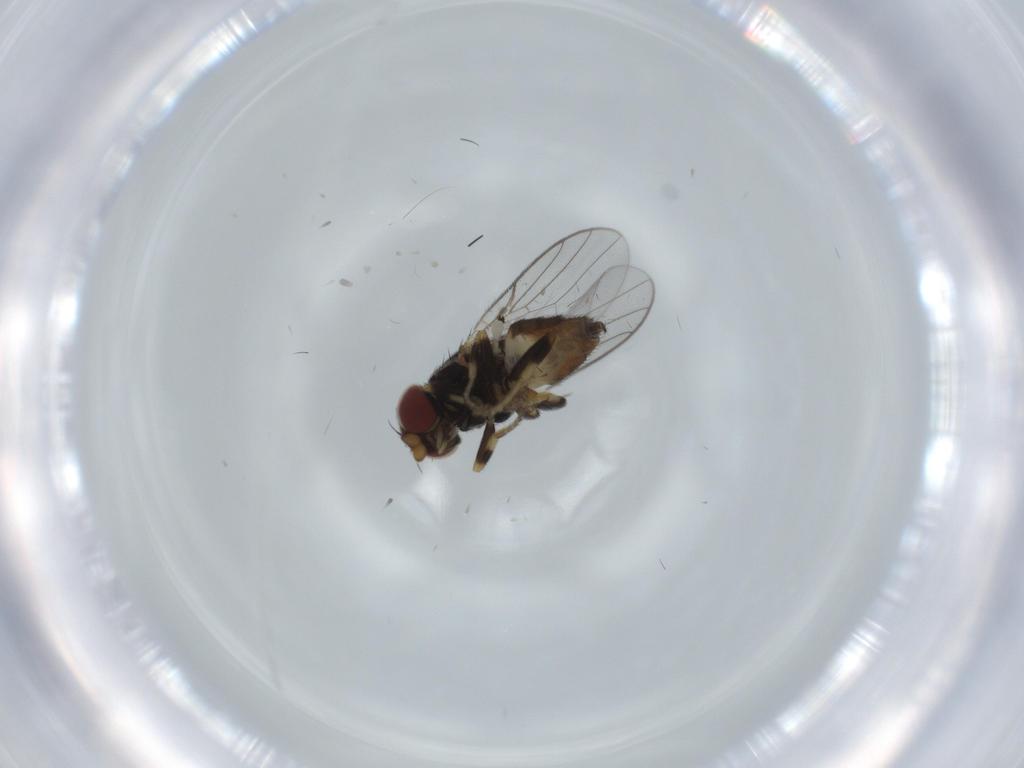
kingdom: Animalia
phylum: Arthropoda
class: Insecta
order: Diptera
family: Chloropidae
